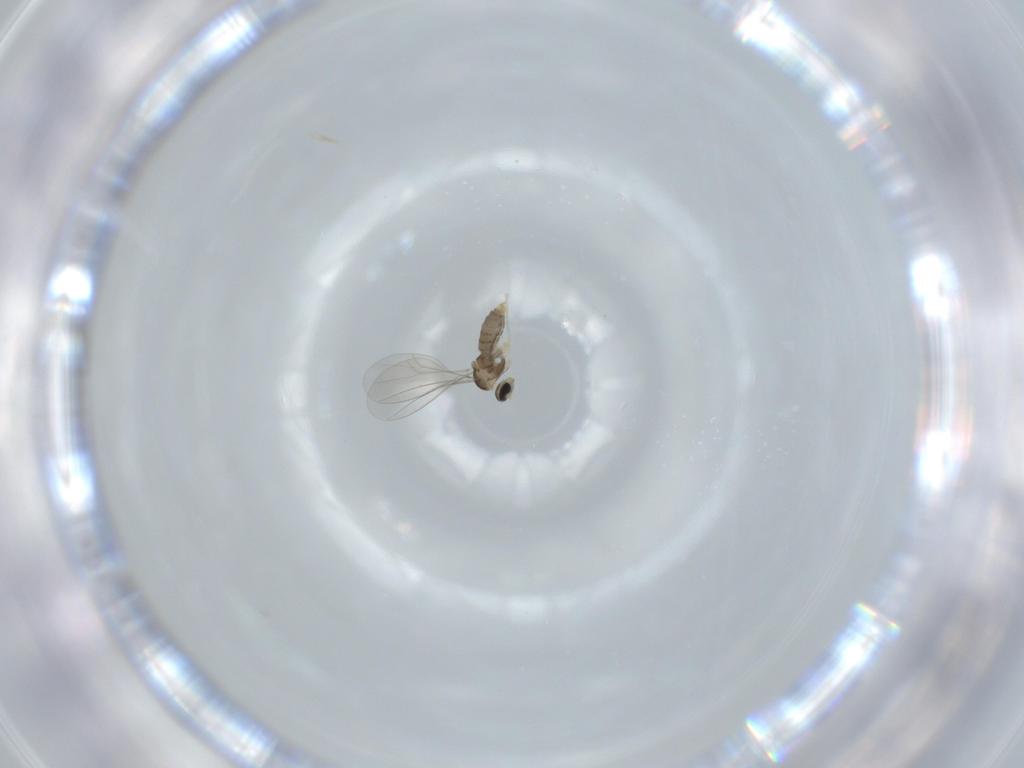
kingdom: Animalia
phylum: Arthropoda
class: Insecta
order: Diptera
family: Cecidomyiidae
